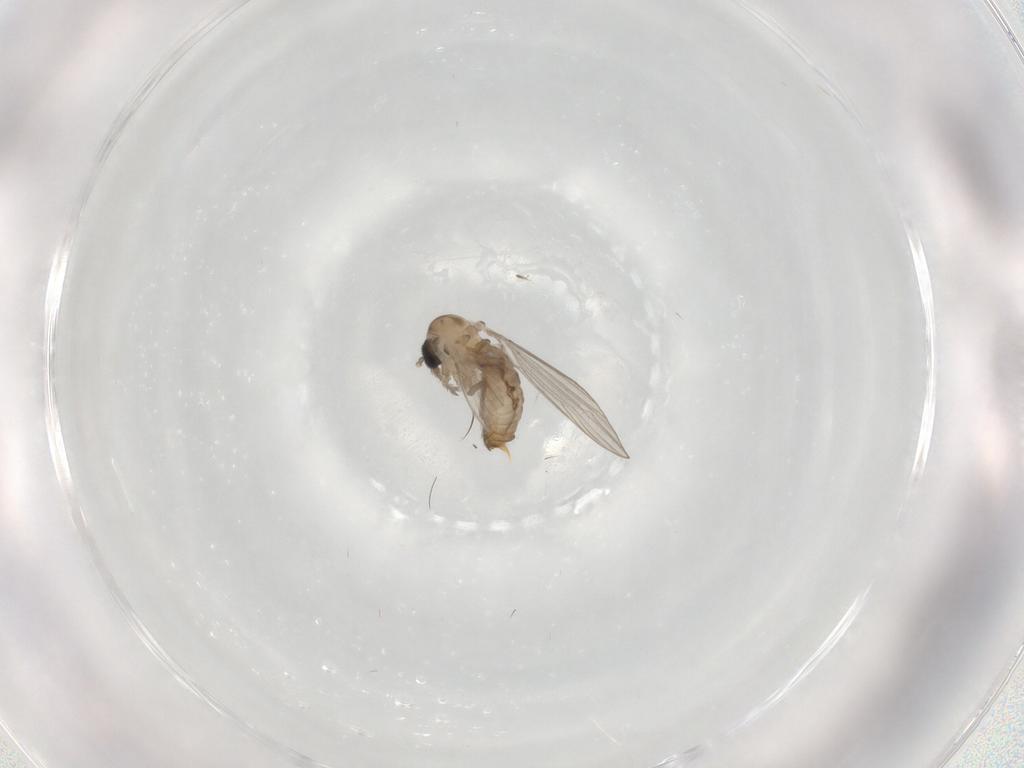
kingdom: Animalia
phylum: Arthropoda
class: Insecta
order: Diptera
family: Psychodidae
